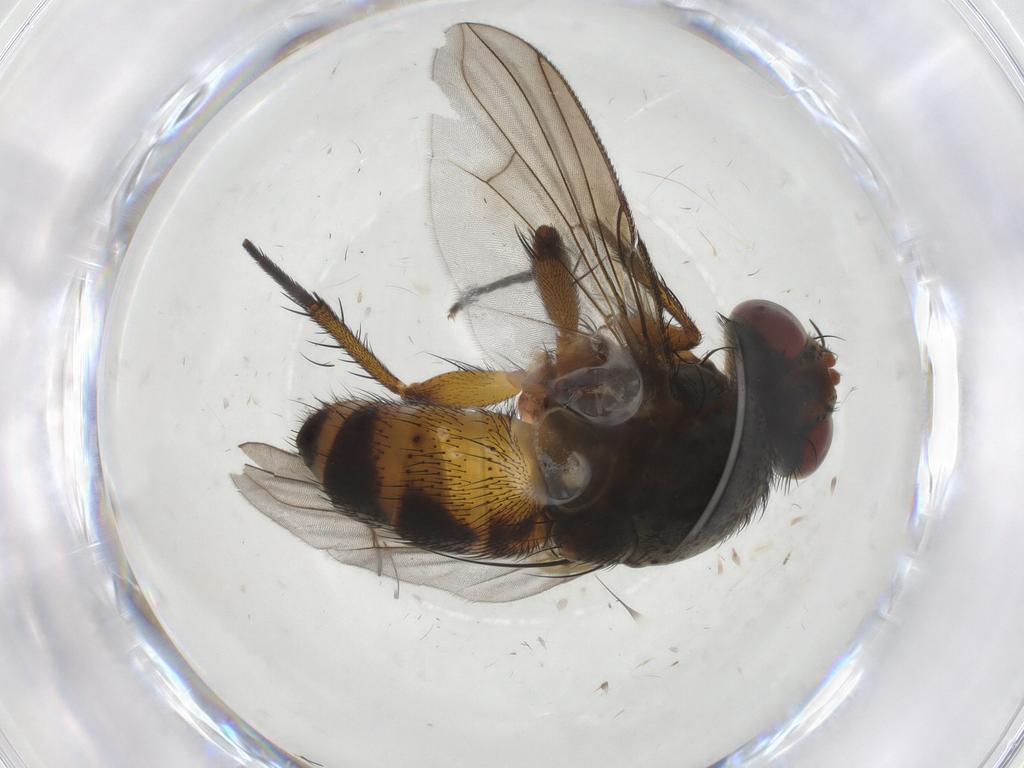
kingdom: Animalia
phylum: Arthropoda
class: Insecta
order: Diptera
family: Tachinidae
